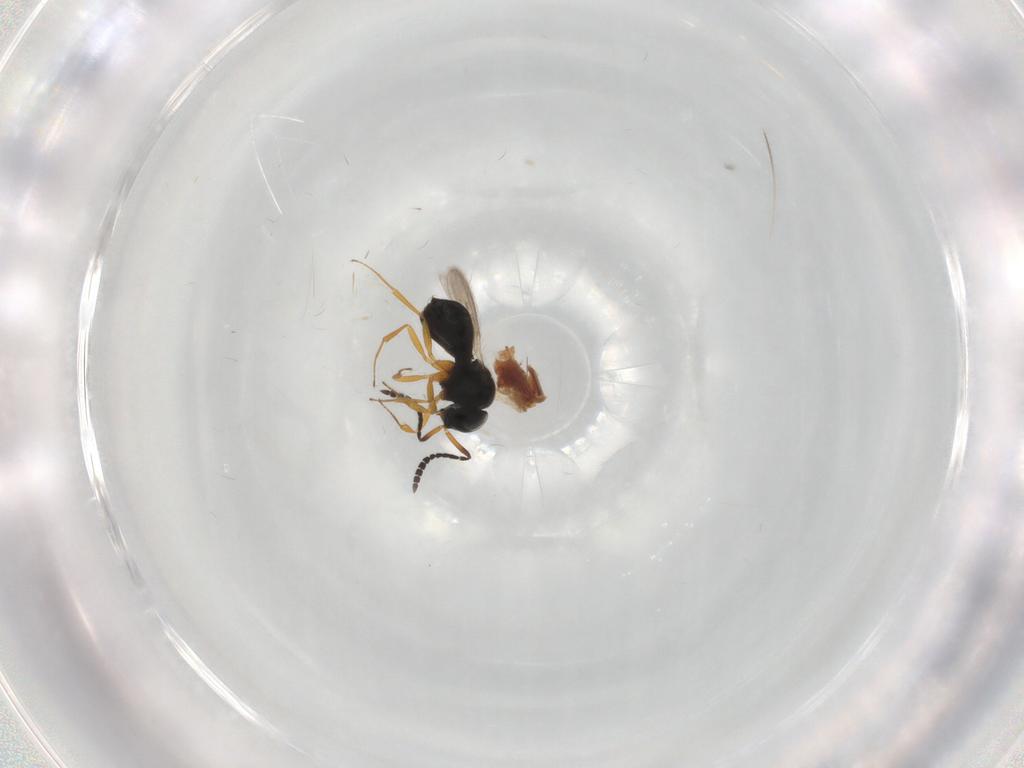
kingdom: Animalia
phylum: Arthropoda
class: Insecta
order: Hymenoptera
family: Scelionidae
